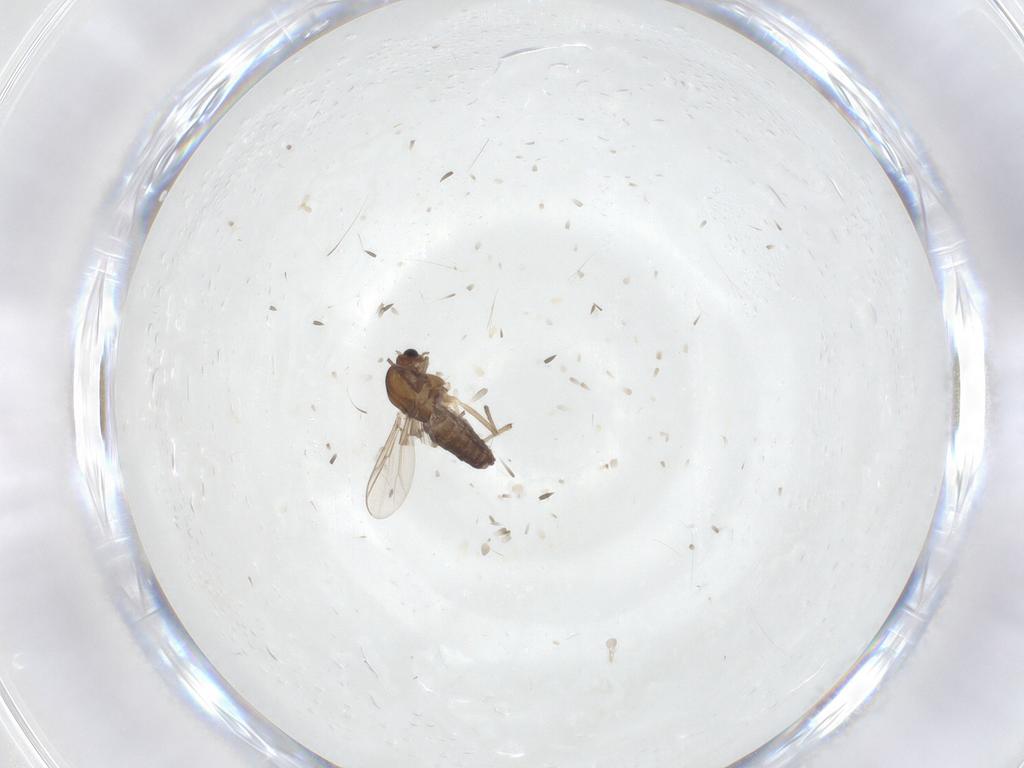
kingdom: Animalia
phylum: Arthropoda
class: Insecta
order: Diptera
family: Chironomidae
